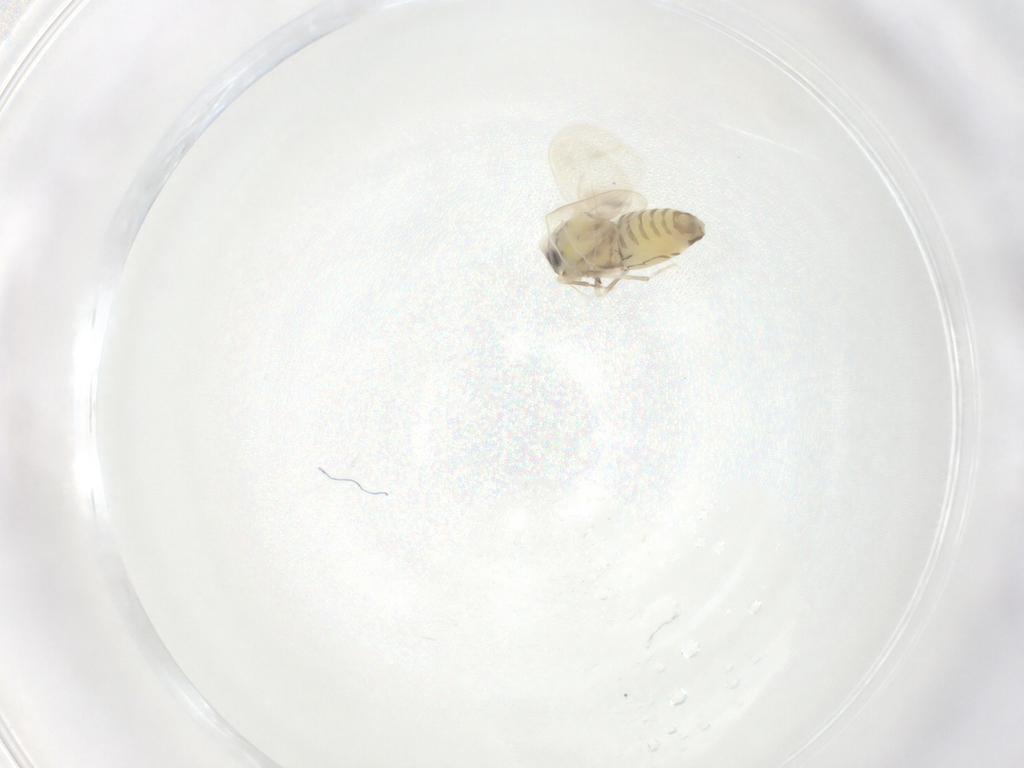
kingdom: Animalia
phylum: Arthropoda
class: Insecta
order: Hemiptera
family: Aleyrodidae
